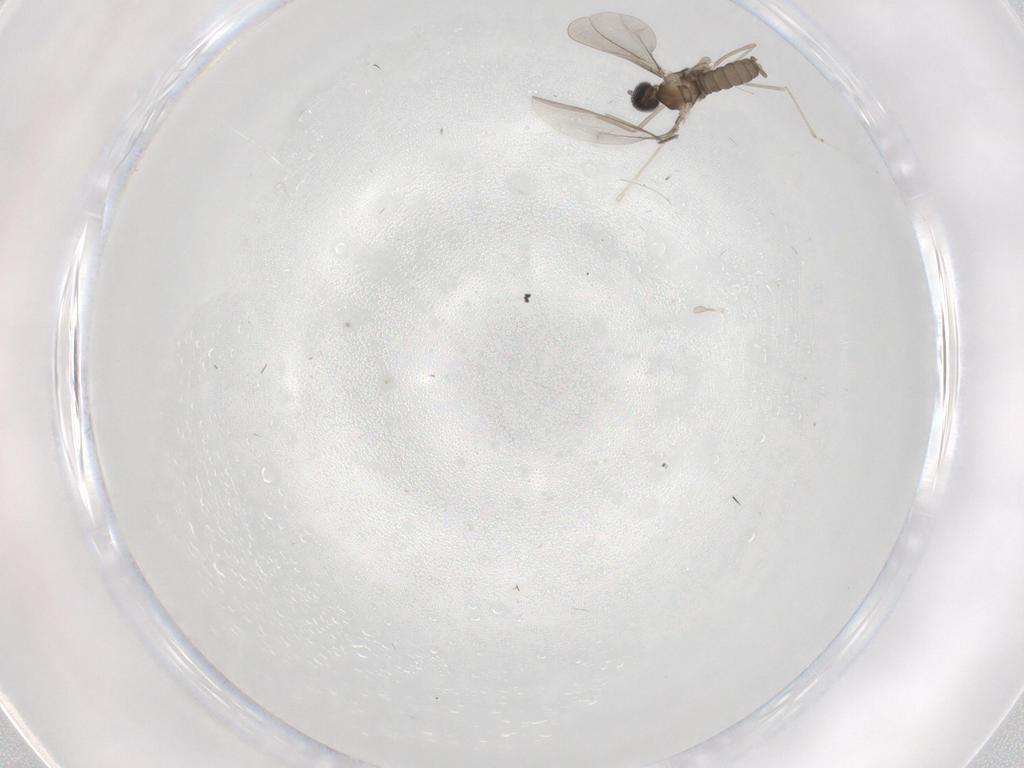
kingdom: Animalia
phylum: Arthropoda
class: Insecta
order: Diptera
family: Cecidomyiidae
